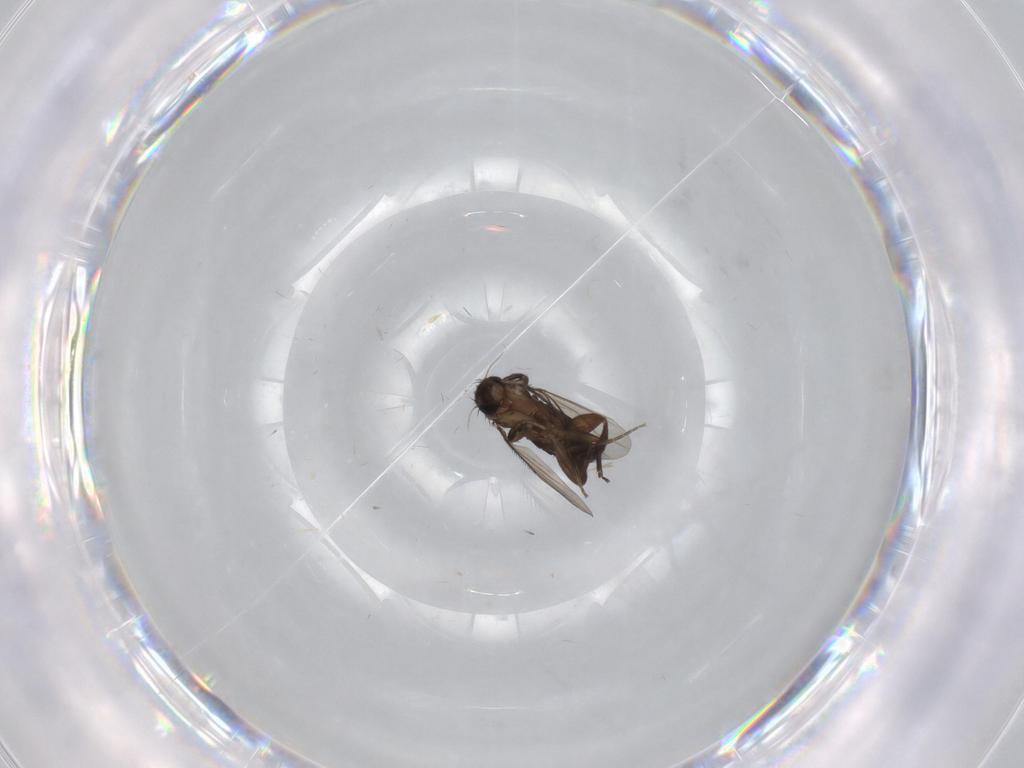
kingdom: Animalia
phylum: Arthropoda
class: Insecta
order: Diptera
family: Phoridae
